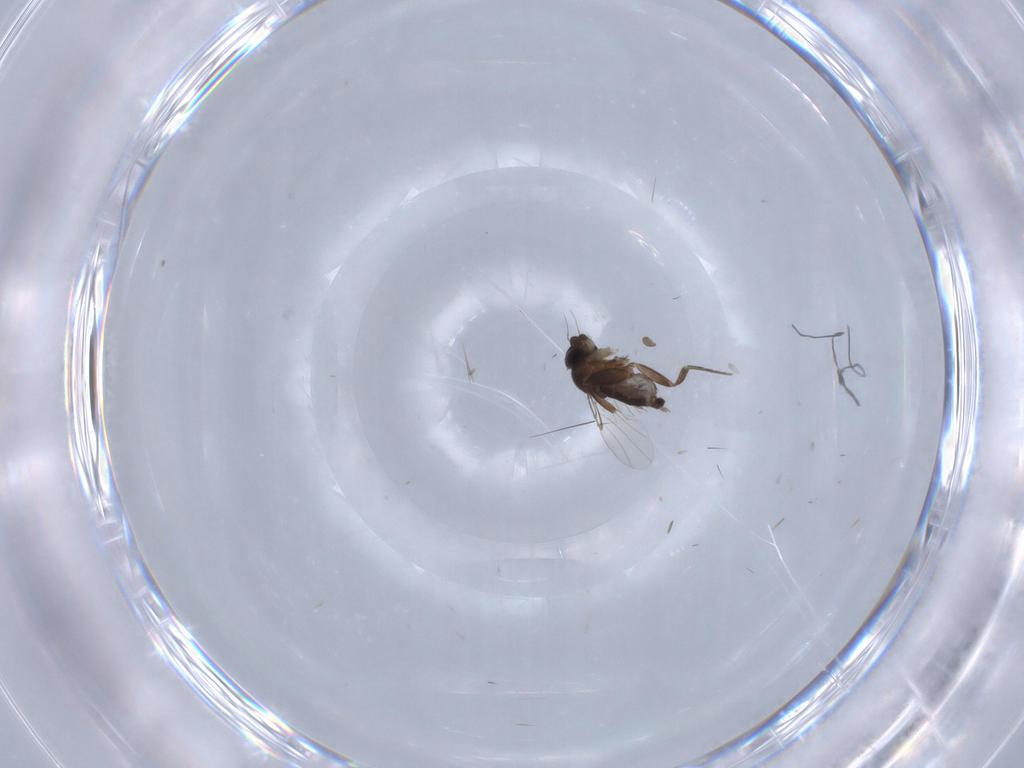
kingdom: Animalia
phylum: Arthropoda
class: Insecta
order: Diptera
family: Phoridae
